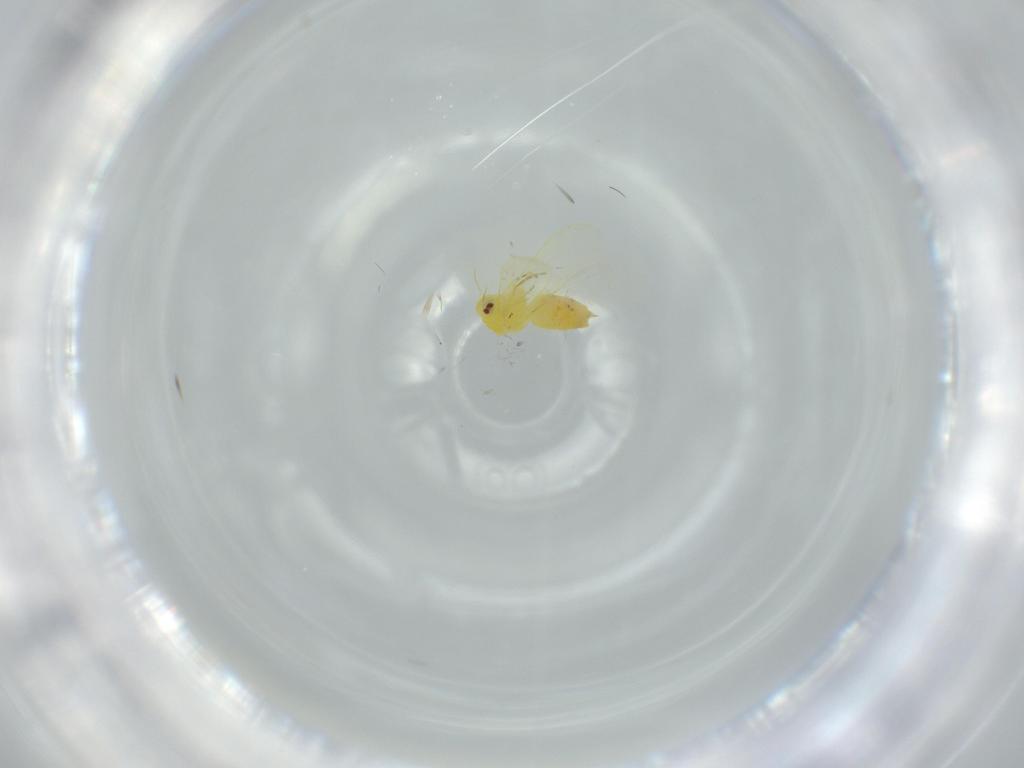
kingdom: Animalia
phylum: Arthropoda
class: Insecta
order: Hemiptera
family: Aleyrodidae
